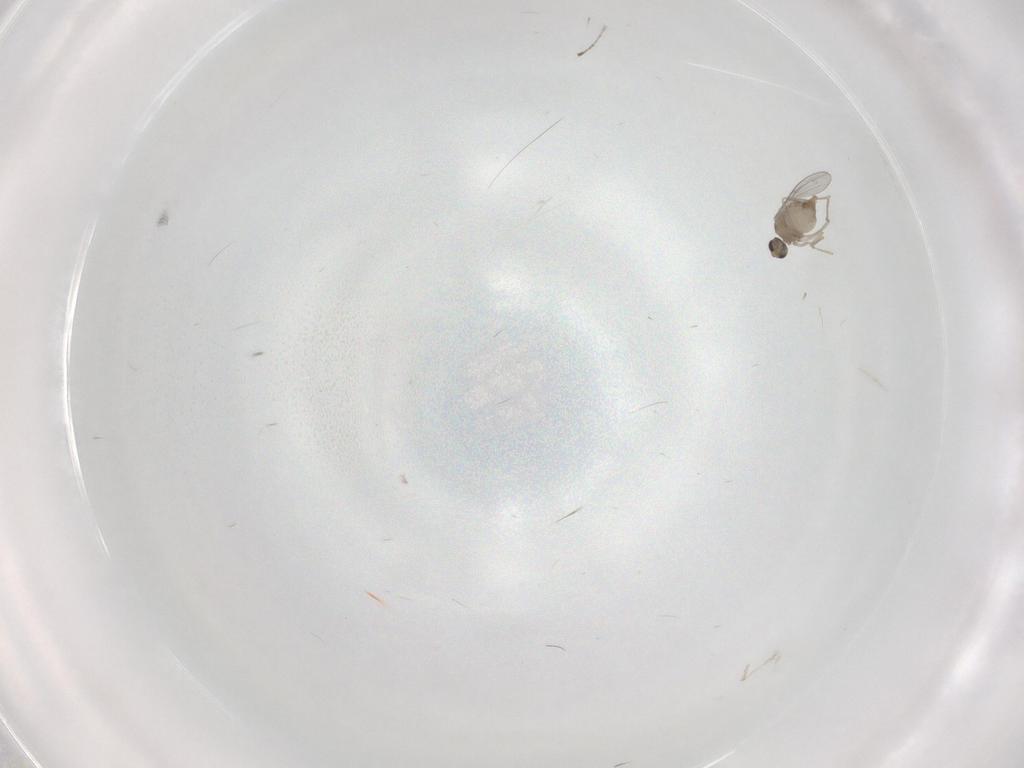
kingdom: Animalia
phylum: Arthropoda
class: Insecta
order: Diptera
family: Cecidomyiidae
